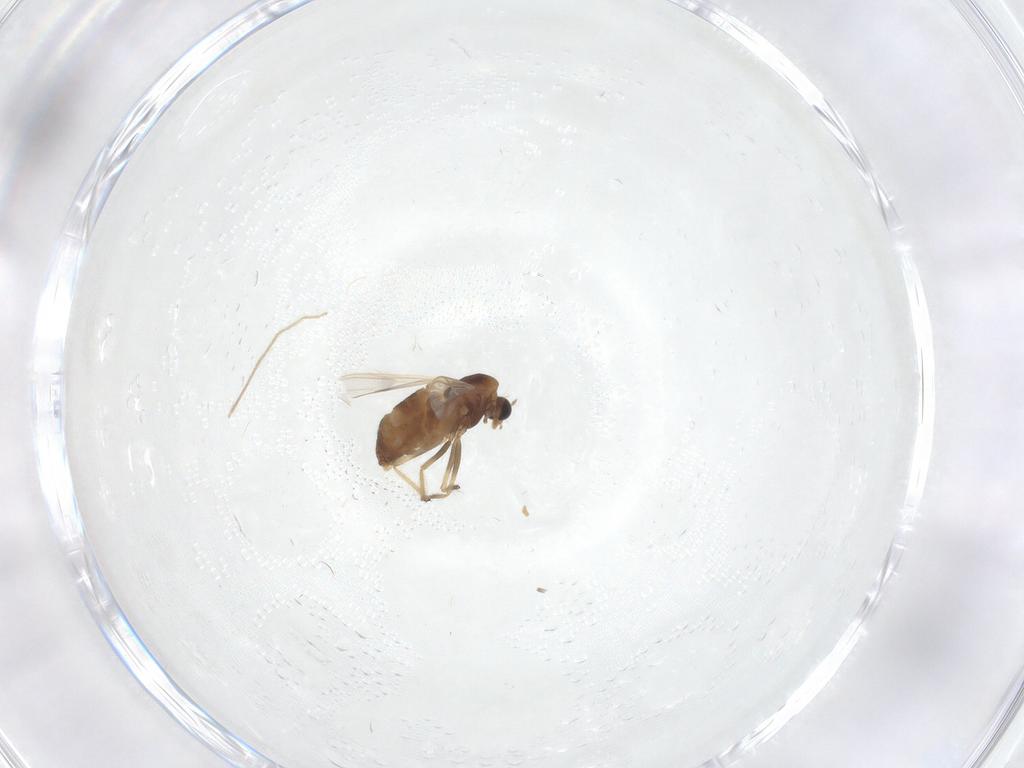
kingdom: Animalia
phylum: Arthropoda
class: Insecta
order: Diptera
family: Chironomidae
